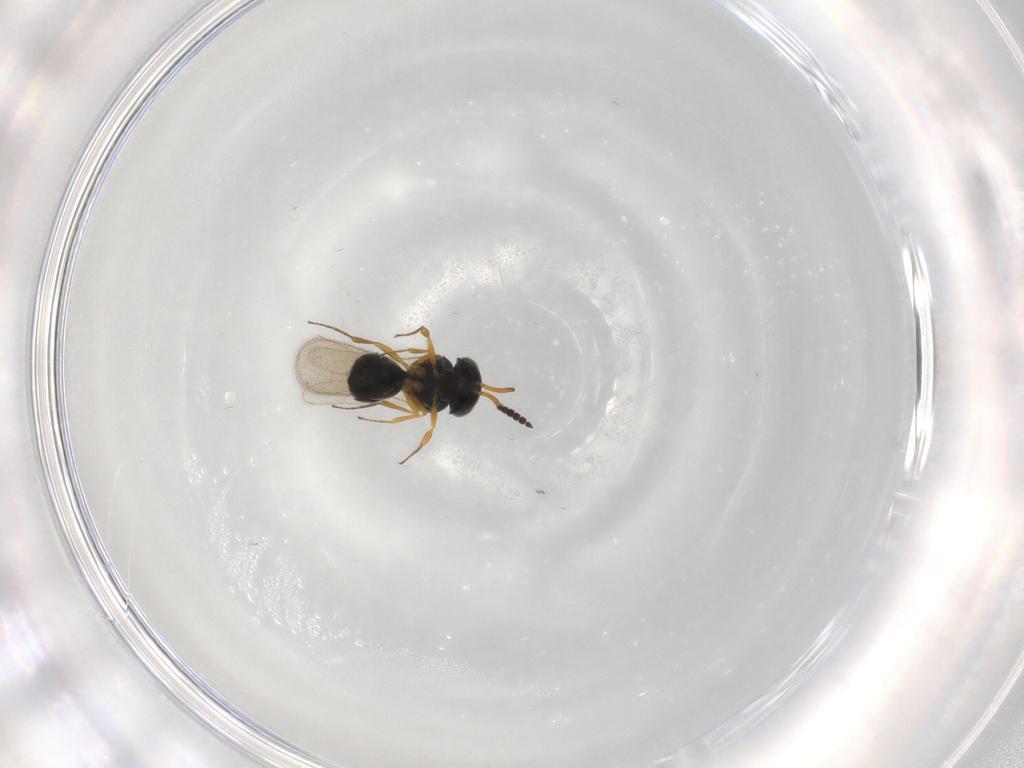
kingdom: Animalia
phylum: Arthropoda
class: Insecta
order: Hymenoptera
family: Scelionidae
